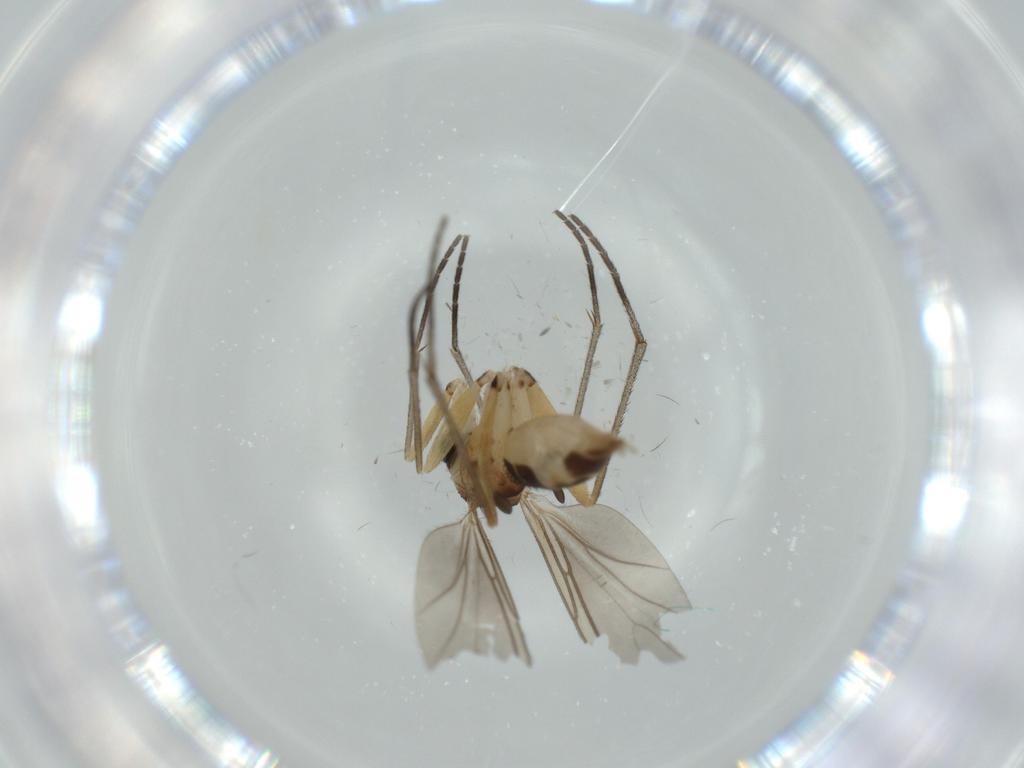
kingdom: Animalia
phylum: Arthropoda
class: Insecta
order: Diptera
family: Sciaridae
